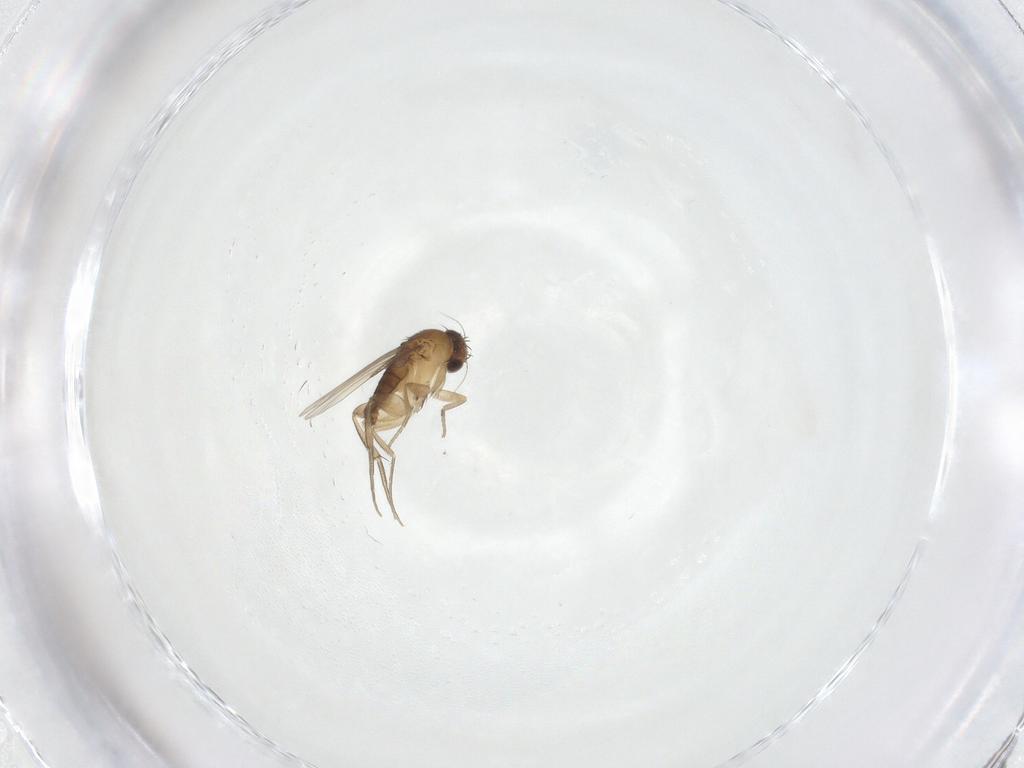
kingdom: Animalia
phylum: Arthropoda
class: Insecta
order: Diptera
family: Phoridae
